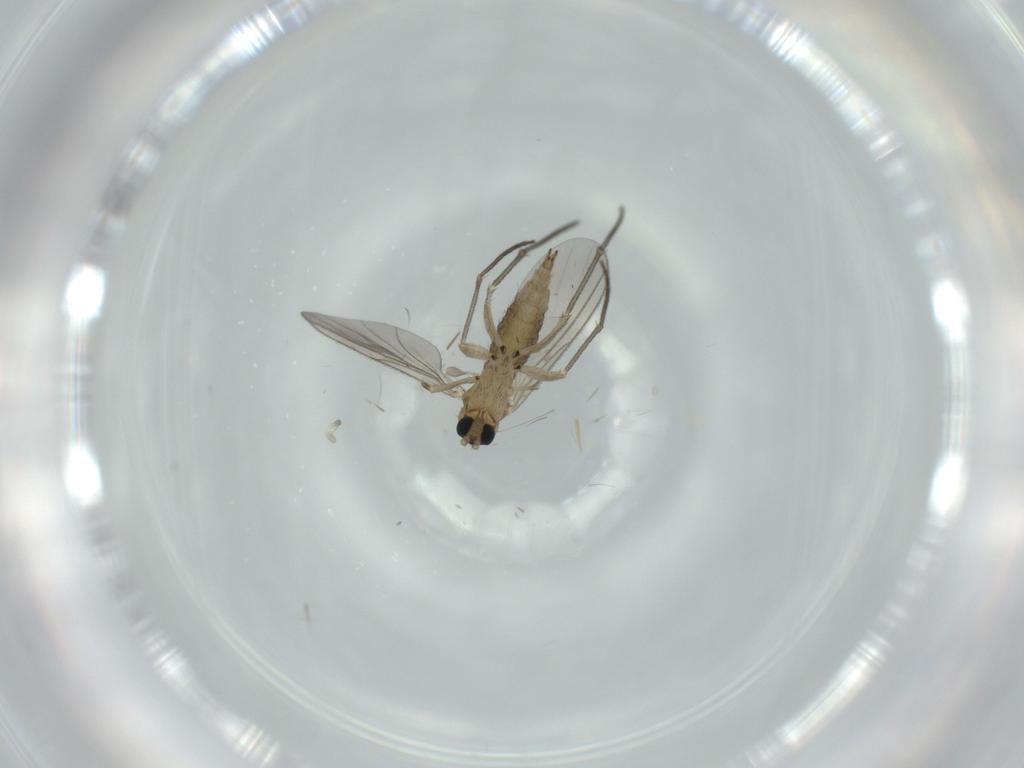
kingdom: Animalia
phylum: Arthropoda
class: Insecta
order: Diptera
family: Sciaridae
